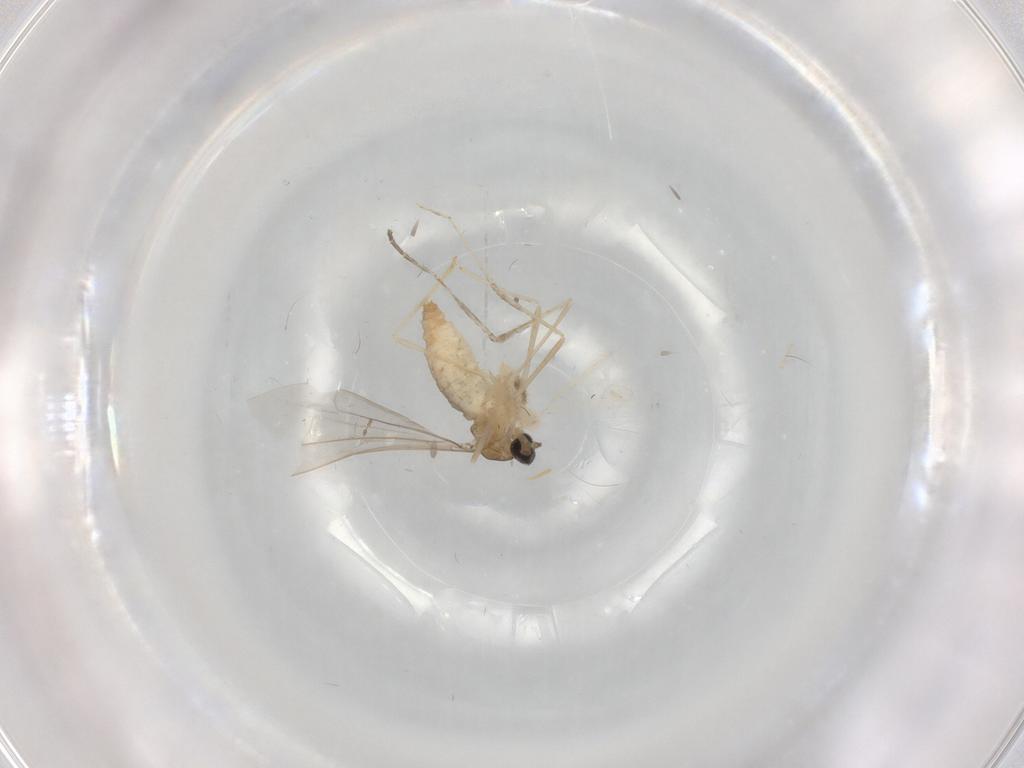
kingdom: Animalia
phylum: Arthropoda
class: Insecta
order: Diptera
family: Cecidomyiidae
